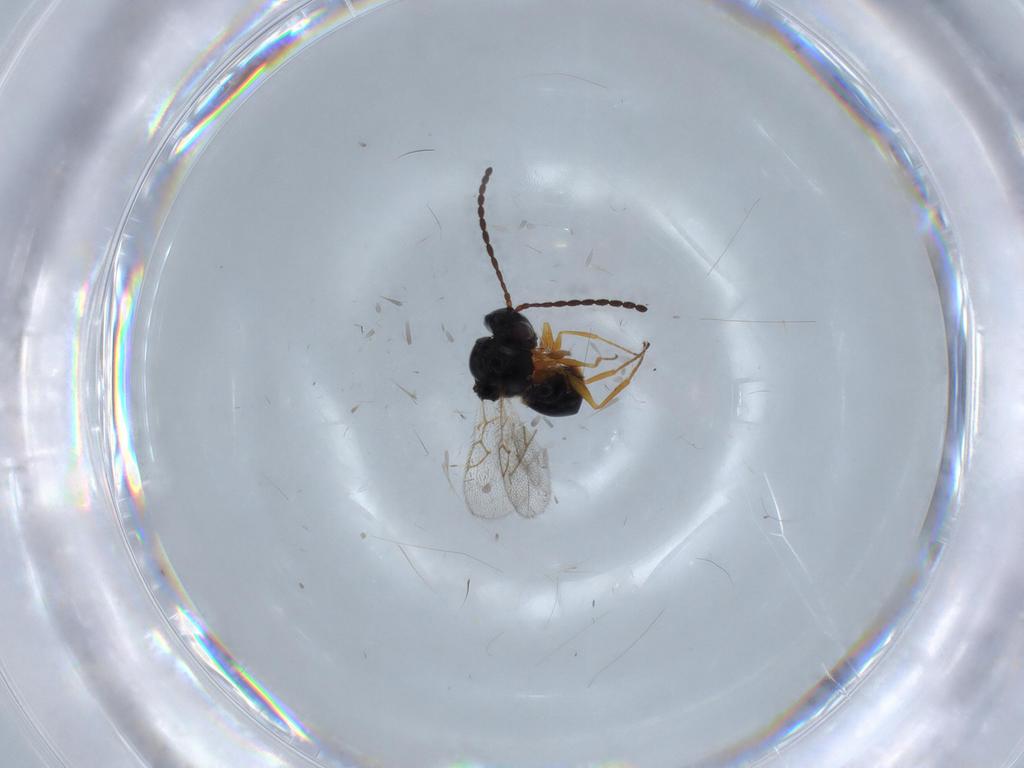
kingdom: Animalia
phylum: Arthropoda
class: Insecta
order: Hymenoptera
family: Figitidae
